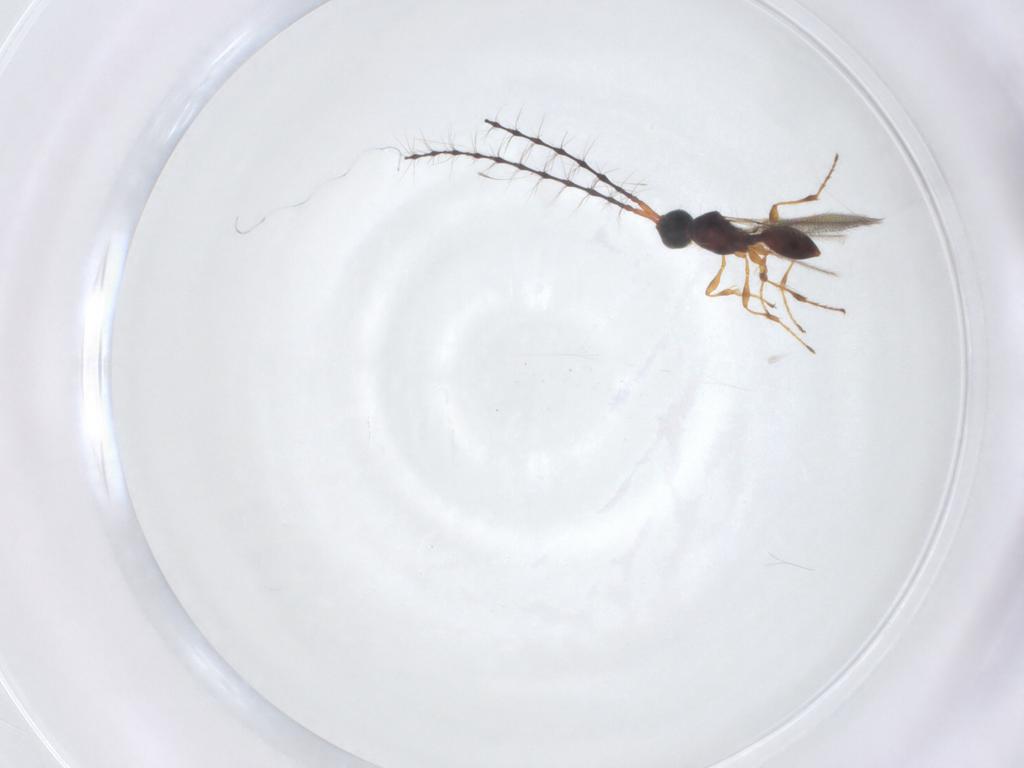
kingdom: Animalia
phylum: Arthropoda
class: Insecta
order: Hymenoptera
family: Diapriidae
